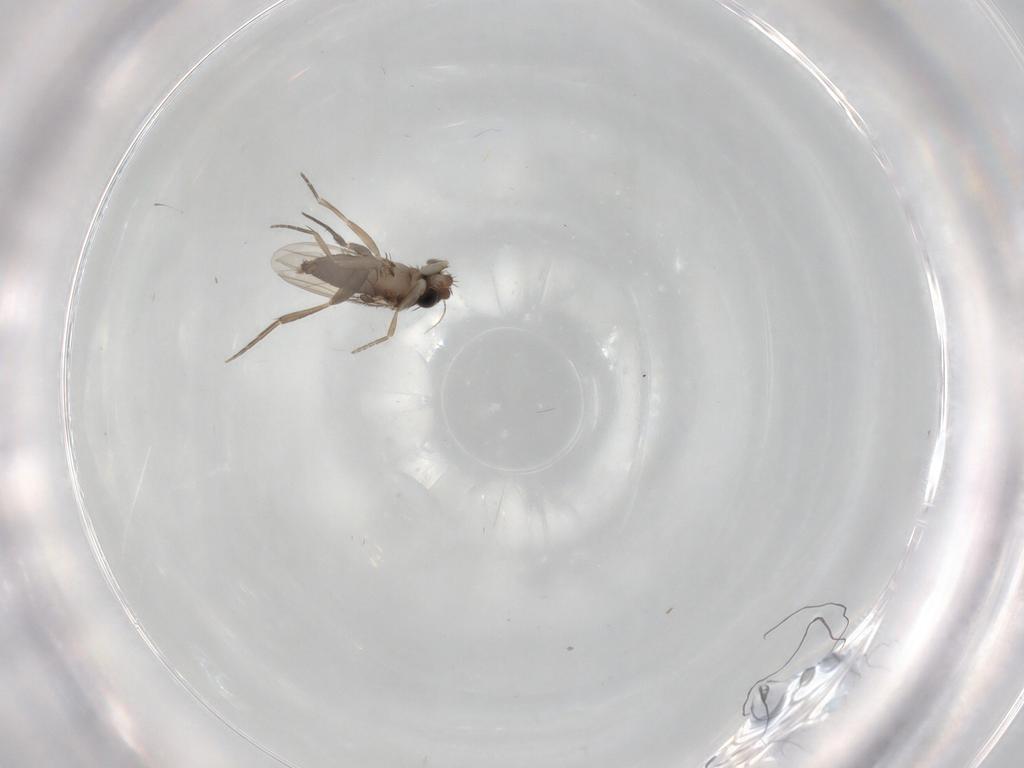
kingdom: Animalia
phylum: Arthropoda
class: Insecta
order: Diptera
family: Phoridae
